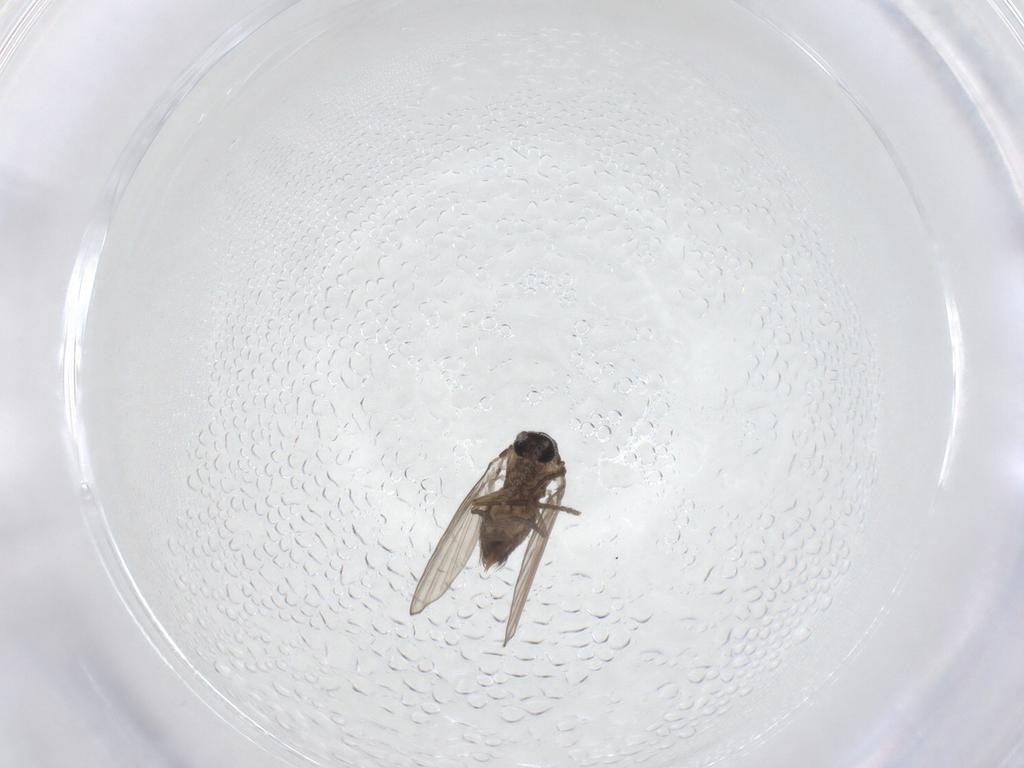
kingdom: Animalia
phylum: Arthropoda
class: Insecta
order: Diptera
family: Psychodidae
